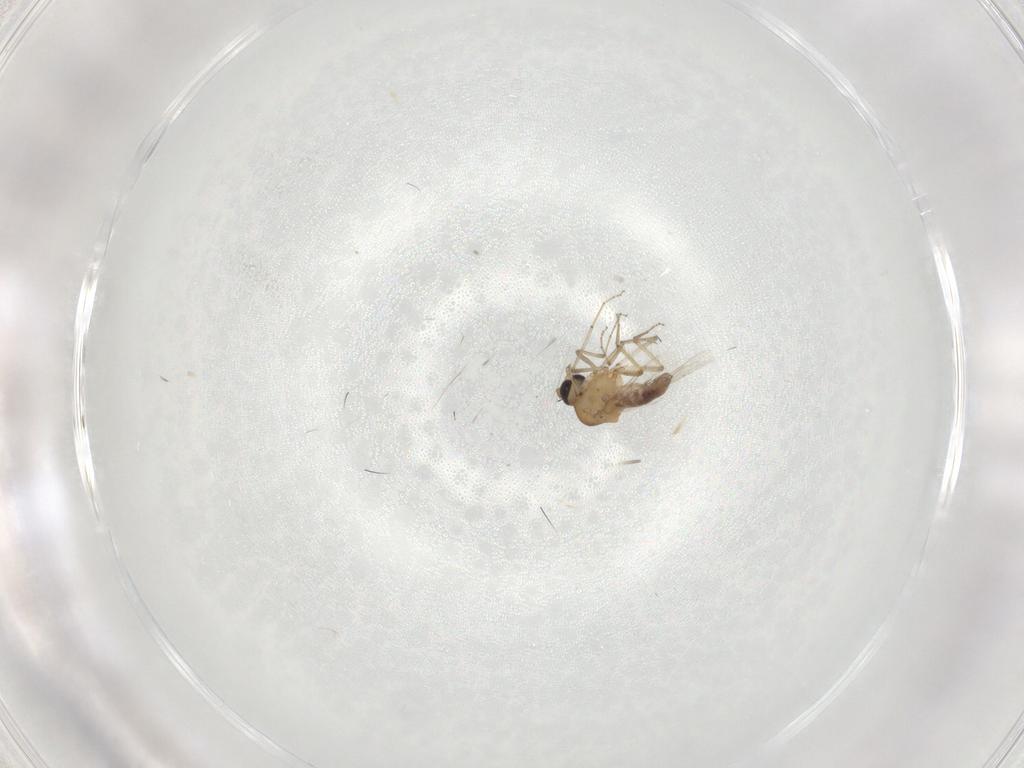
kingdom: Animalia
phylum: Arthropoda
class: Insecta
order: Diptera
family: Ceratopogonidae
